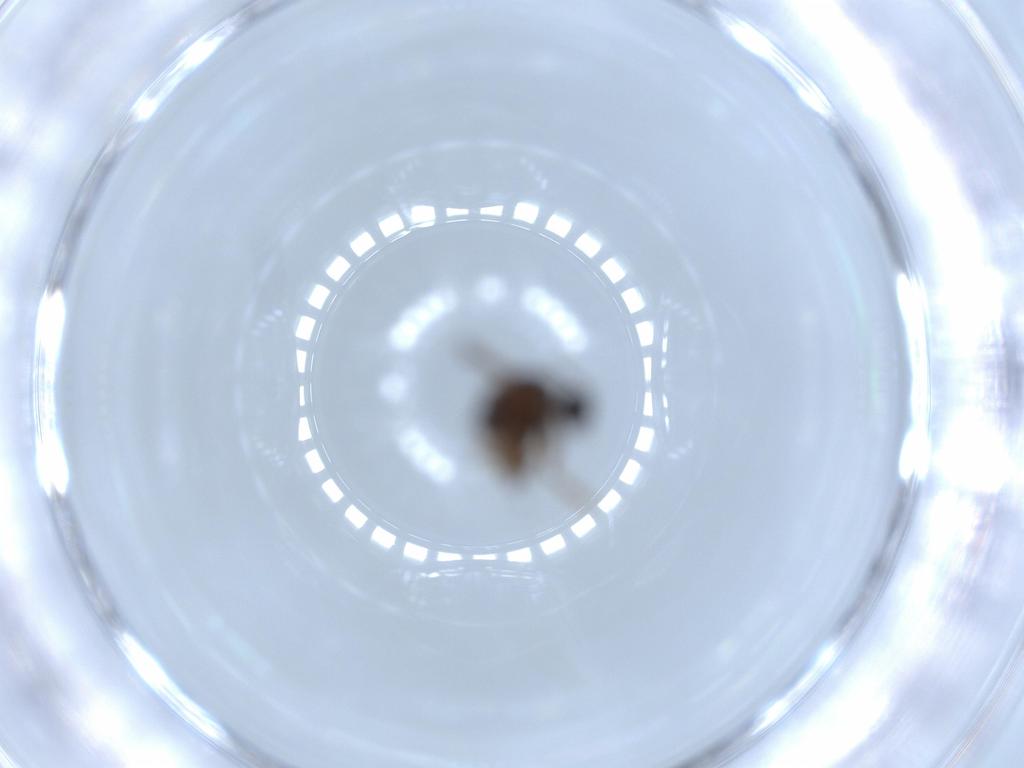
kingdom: Animalia
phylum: Arthropoda
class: Insecta
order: Diptera
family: Sciaridae
